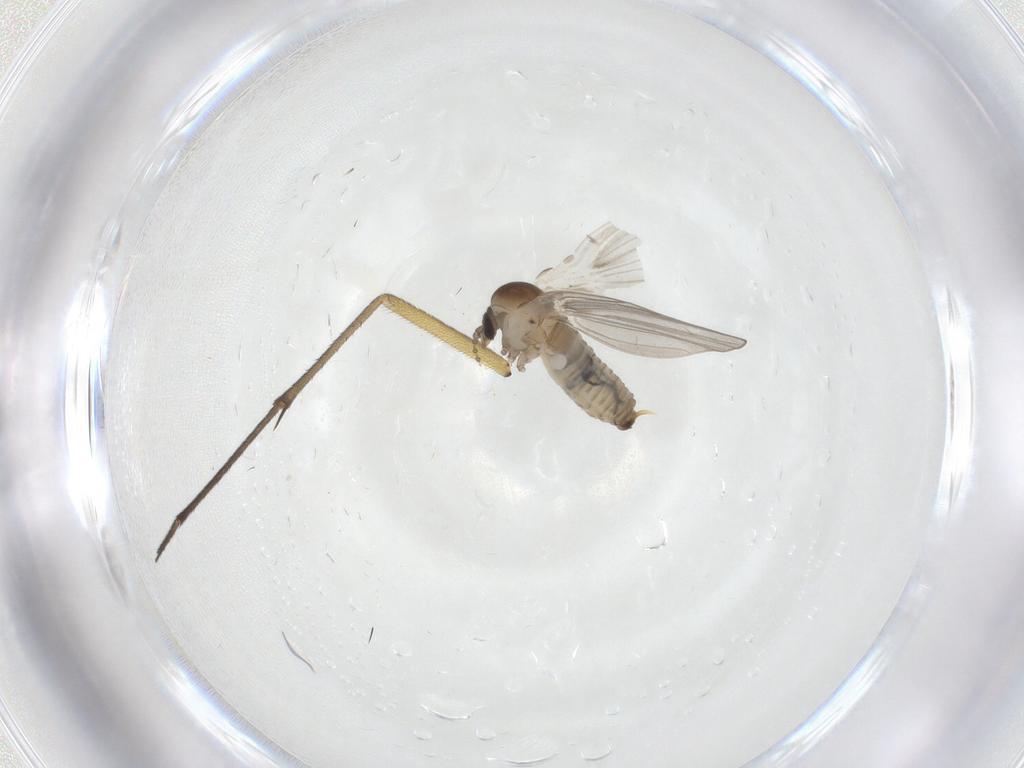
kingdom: Animalia
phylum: Arthropoda
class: Insecta
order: Diptera
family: Psychodidae
